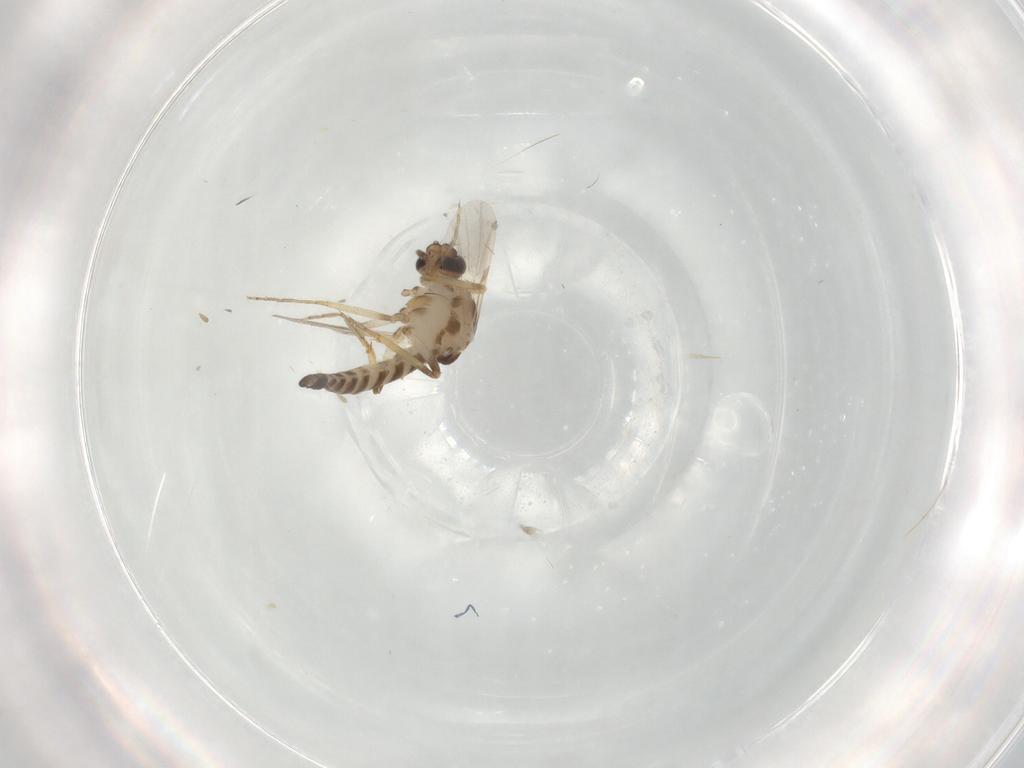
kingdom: Animalia
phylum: Arthropoda
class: Insecta
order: Diptera
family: Ceratopogonidae
